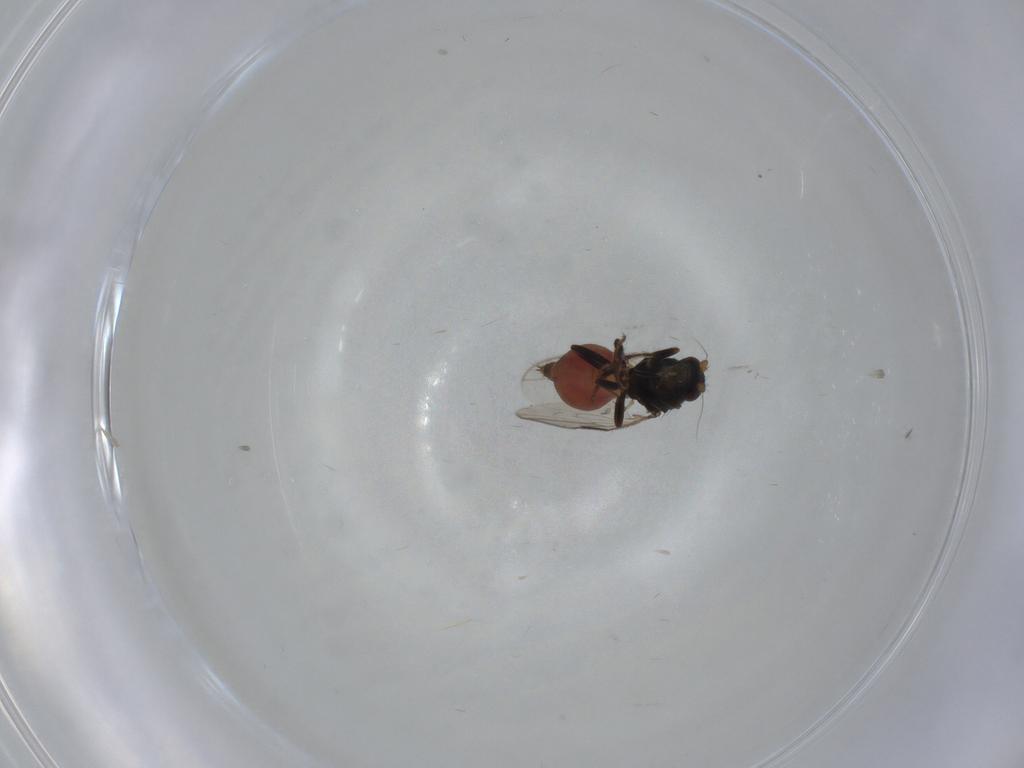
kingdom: Animalia
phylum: Arthropoda
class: Insecta
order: Diptera
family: Sphaeroceridae
